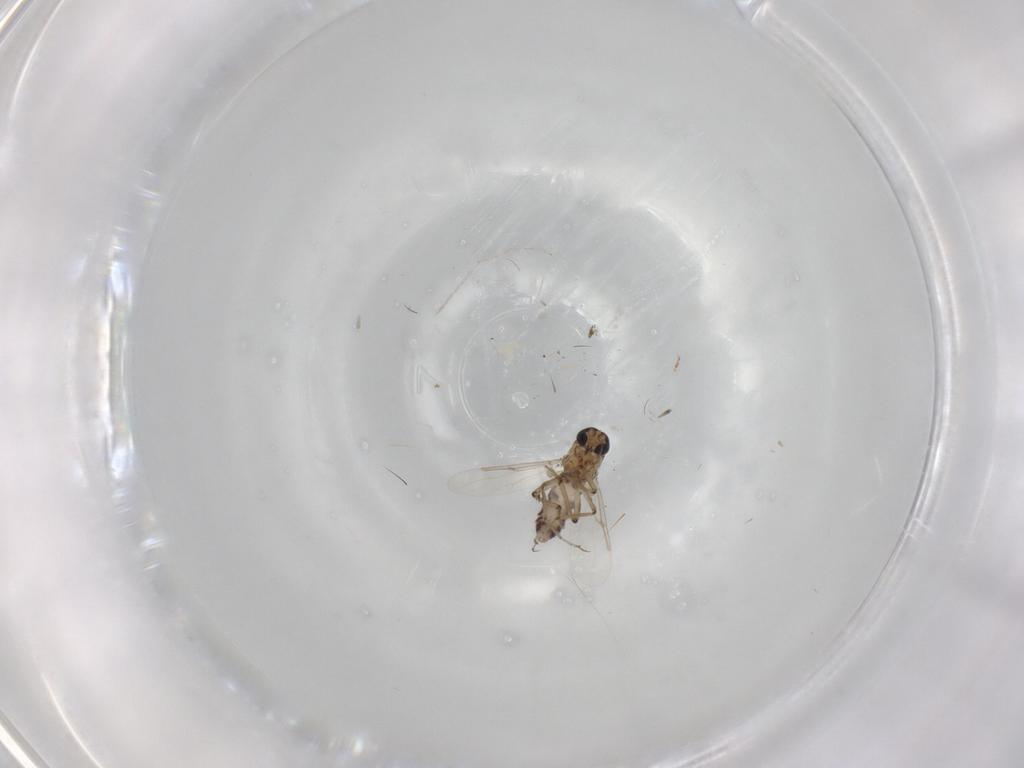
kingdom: Animalia
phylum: Arthropoda
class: Insecta
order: Diptera
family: Ceratopogonidae
